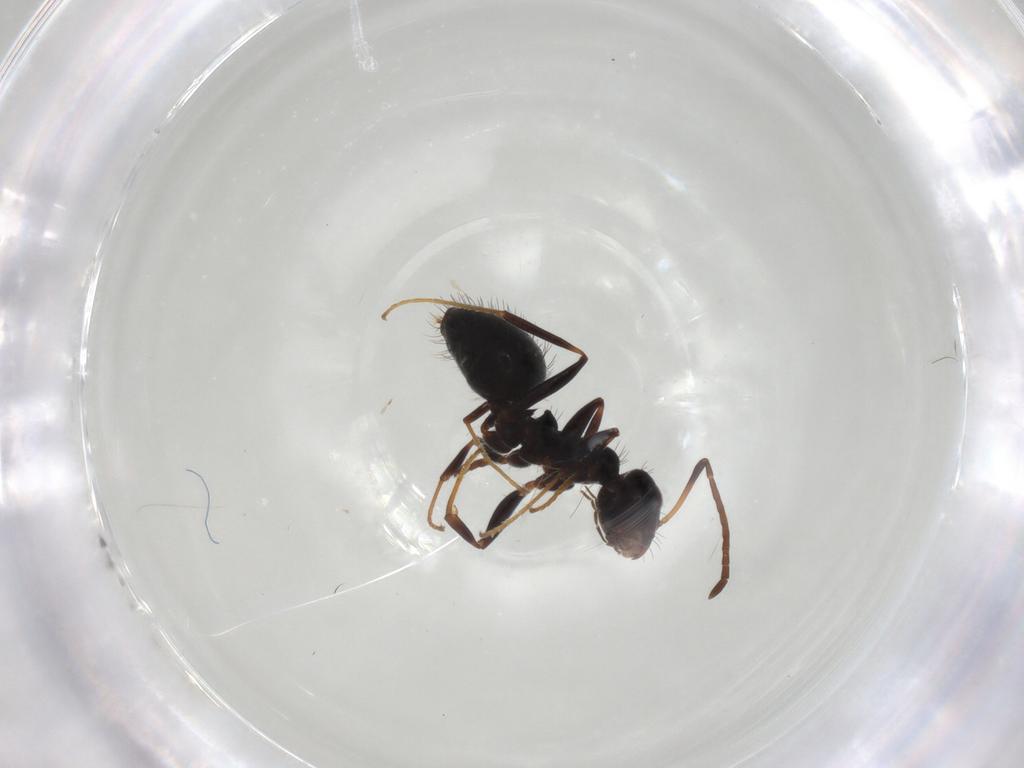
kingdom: Animalia
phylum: Arthropoda
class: Insecta
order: Hymenoptera
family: Formicidae
